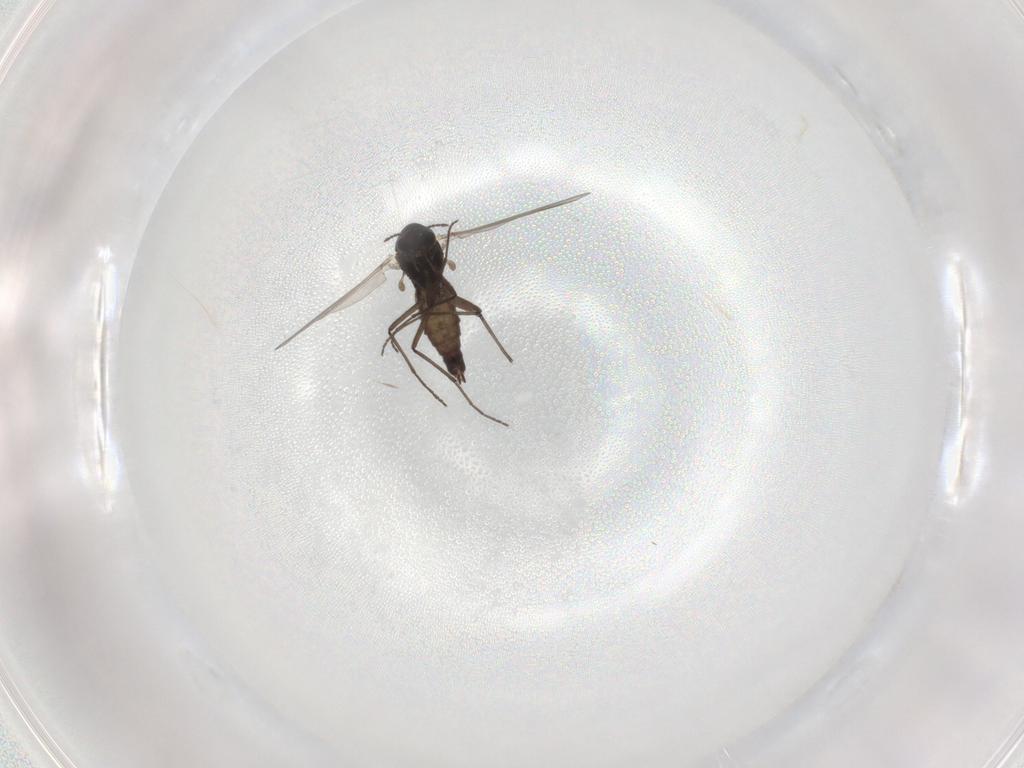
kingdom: Animalia
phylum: Arthropoda
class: Insecta
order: Diptera
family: Chironomidae
